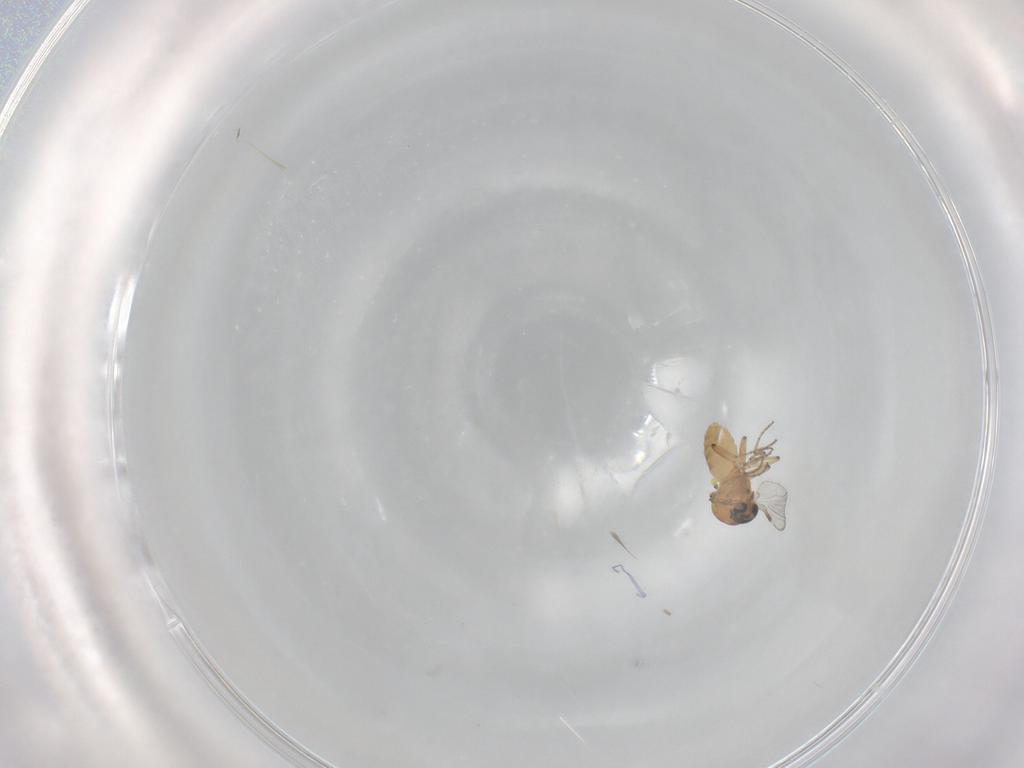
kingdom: Animalia
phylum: Arthropoda
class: Insecta
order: Diptera
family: Ceratopogonidae
